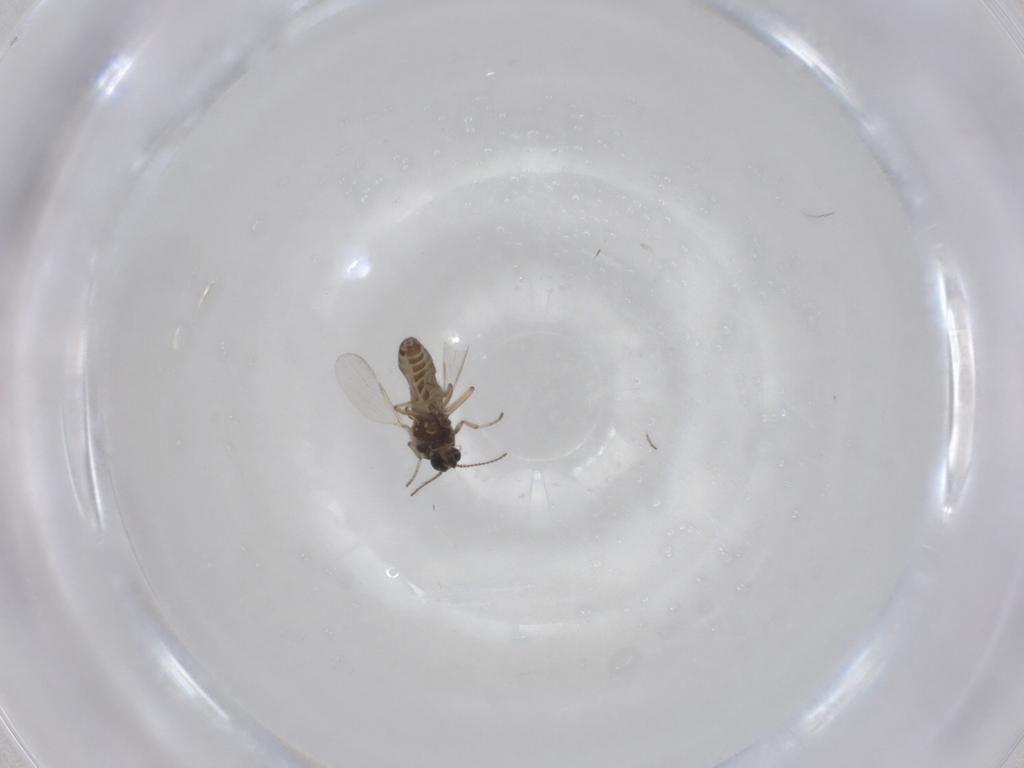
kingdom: Animalia
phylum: Arthropoda
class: Insecta
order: Diptera
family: Ceratopogonidae
